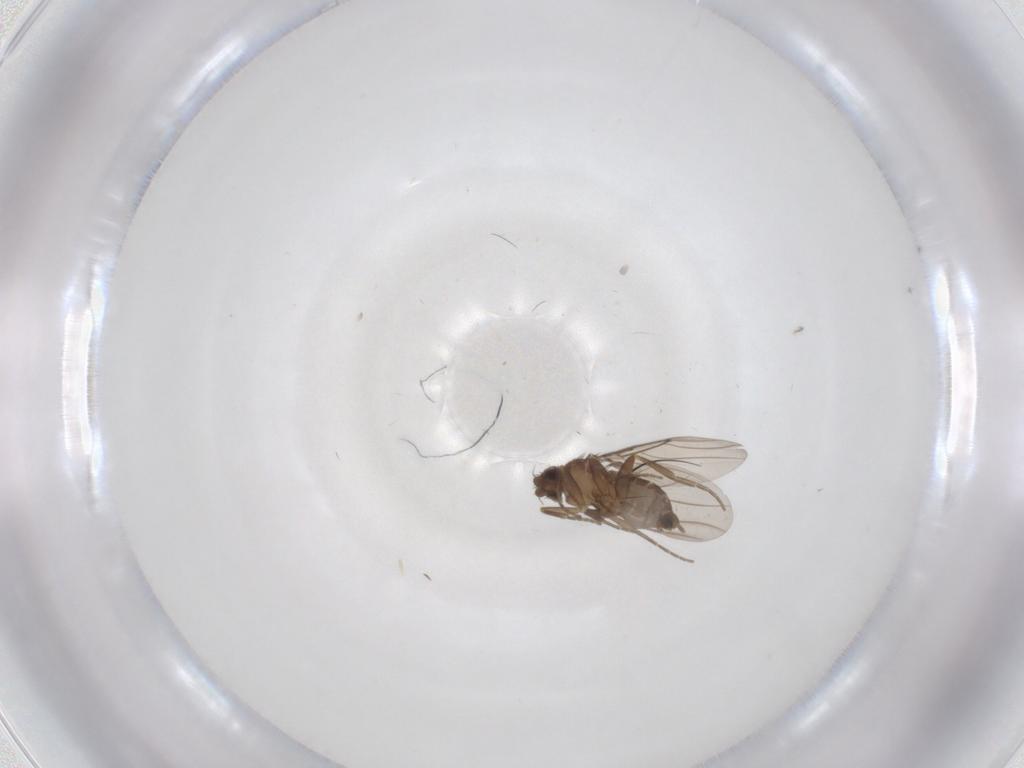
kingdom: Animalia
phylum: Arthropoda
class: Insecta
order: Diptera
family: Phoridae
